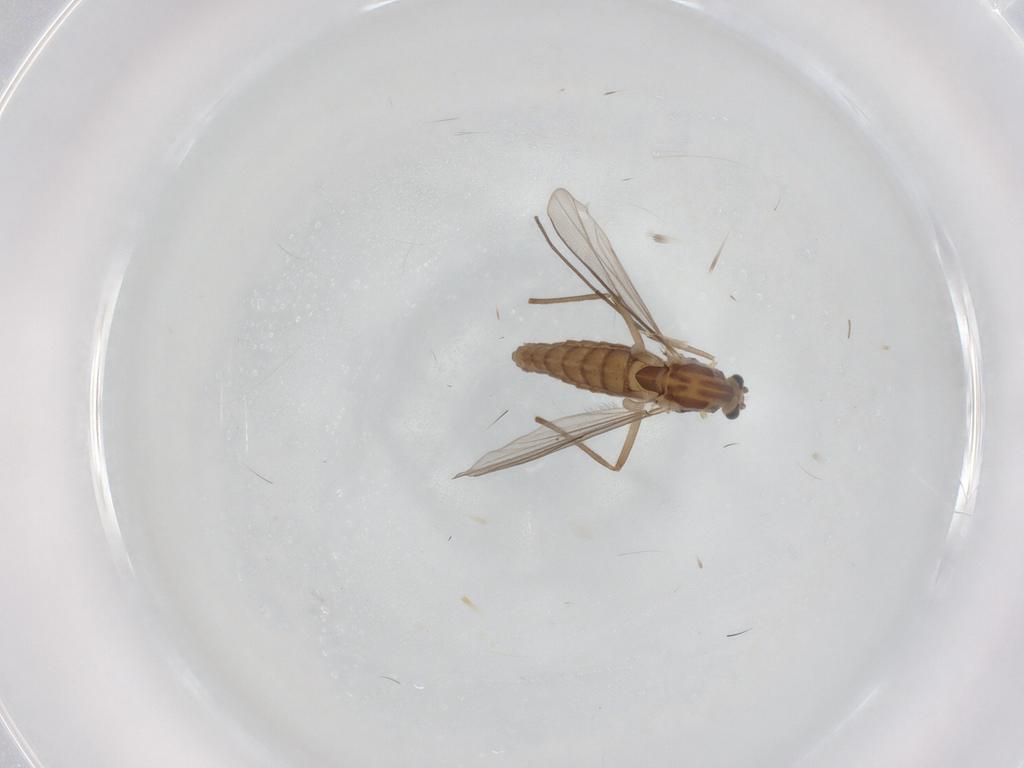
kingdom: Animalia
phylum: Arthropoda
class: Insecta
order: Diptera
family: Chironomidae
